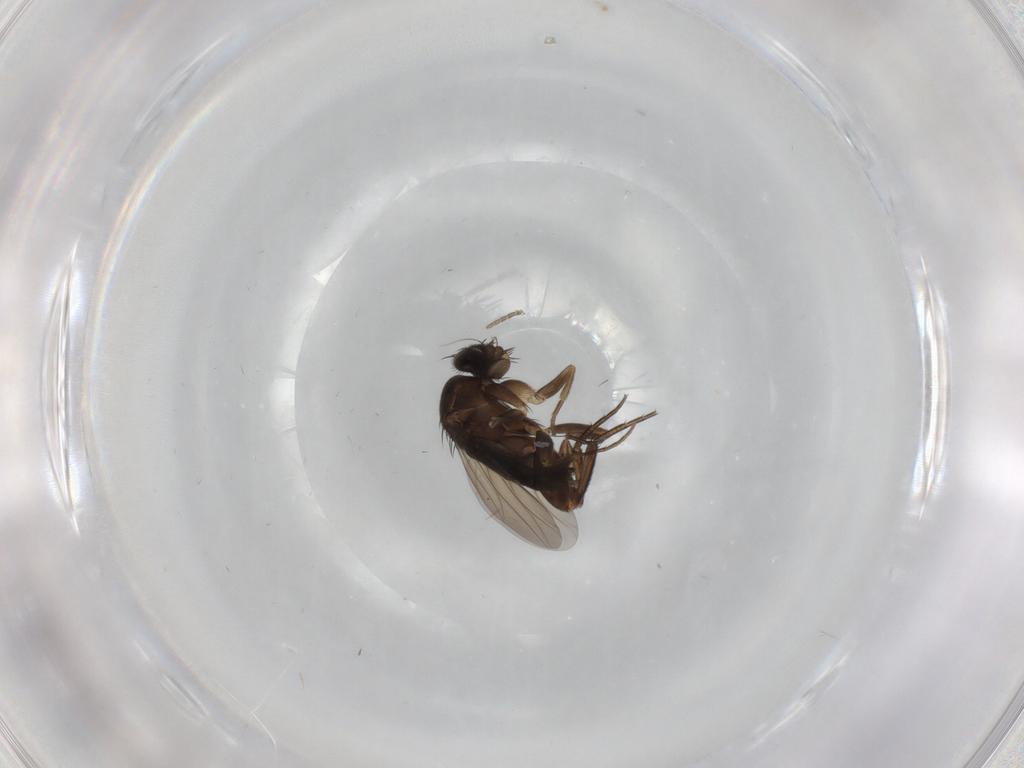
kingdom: Animalia
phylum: Arthropoda
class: Insecta
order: Diptera
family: Phoridae
